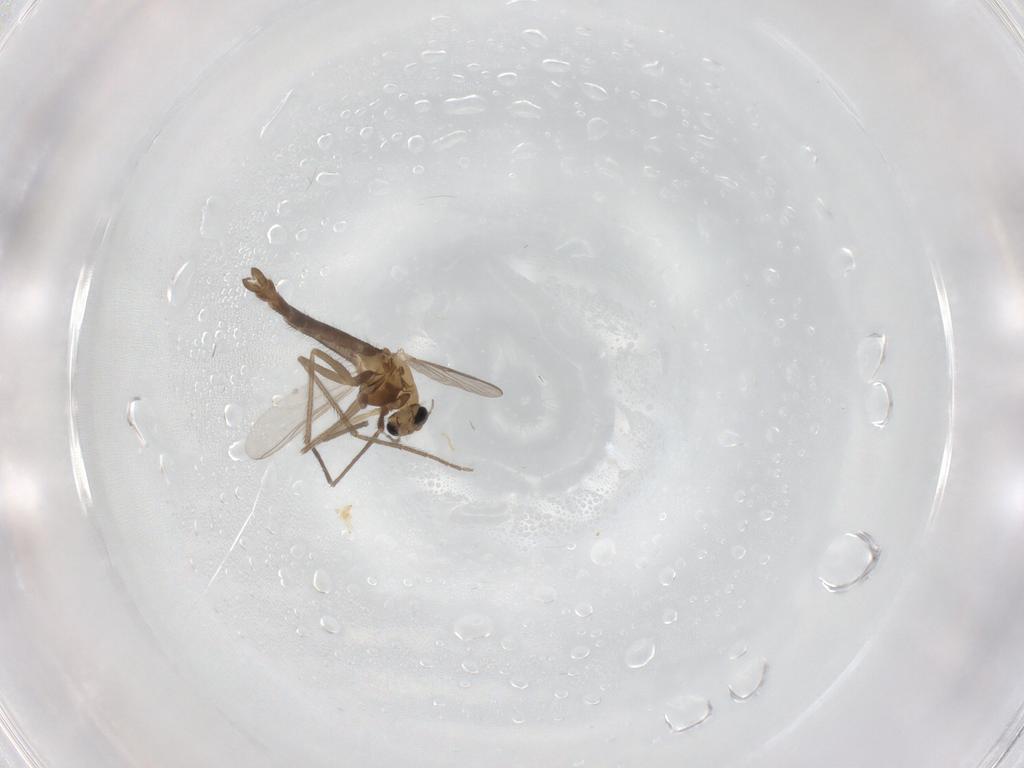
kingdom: Animalia
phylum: Arthropoda
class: Insecta
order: Diptera
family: Chironomidae
